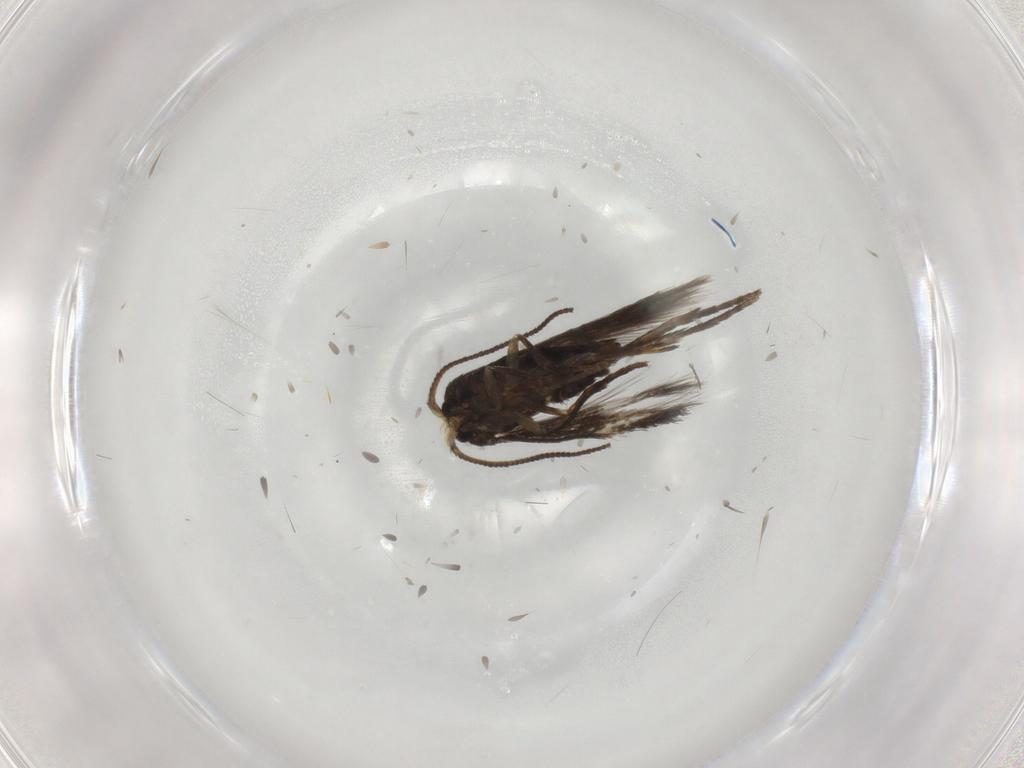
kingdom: Animalia
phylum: Arthropoda
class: Insecta
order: Lepidoptera
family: Nepticulidae
